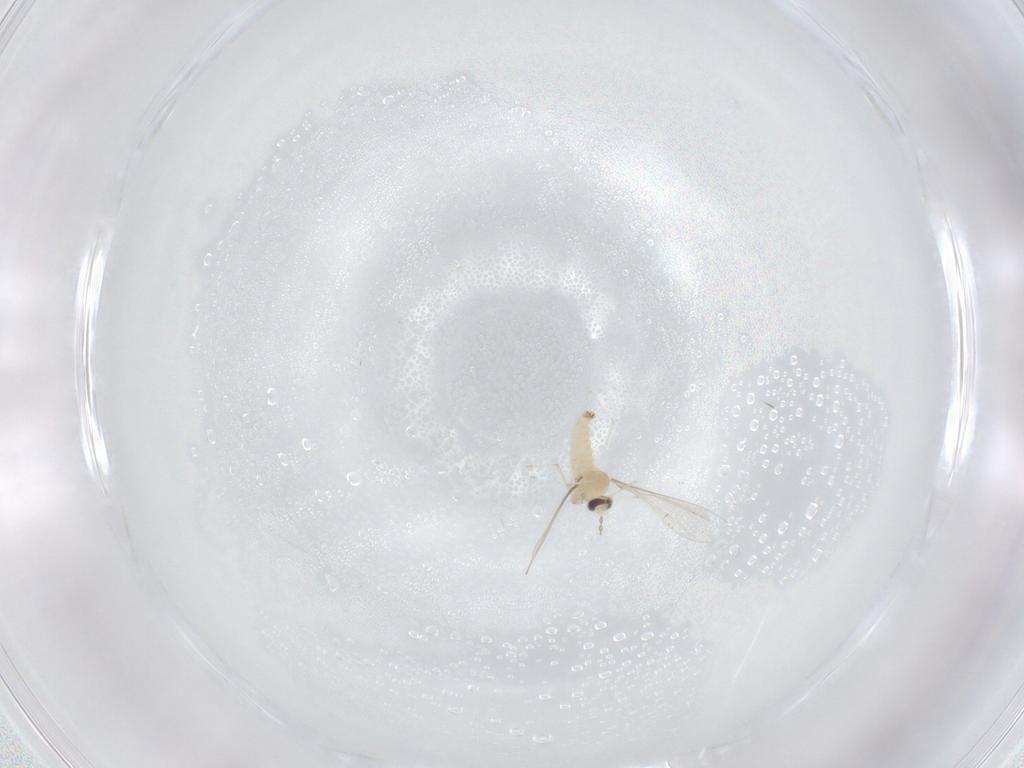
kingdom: Animalia
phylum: Arthropoda
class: Insecta
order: Diptera
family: Cecidomyiidae
